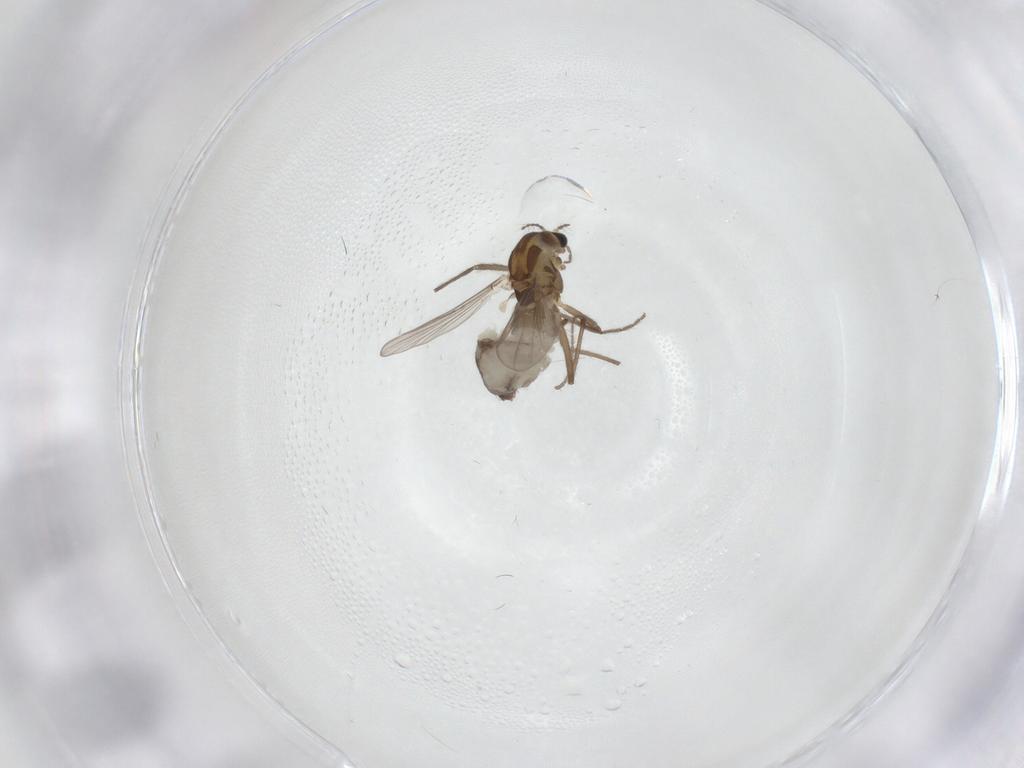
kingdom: Animalia
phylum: Arthropoda
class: Insecta
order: Diptera
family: Chironomidae
